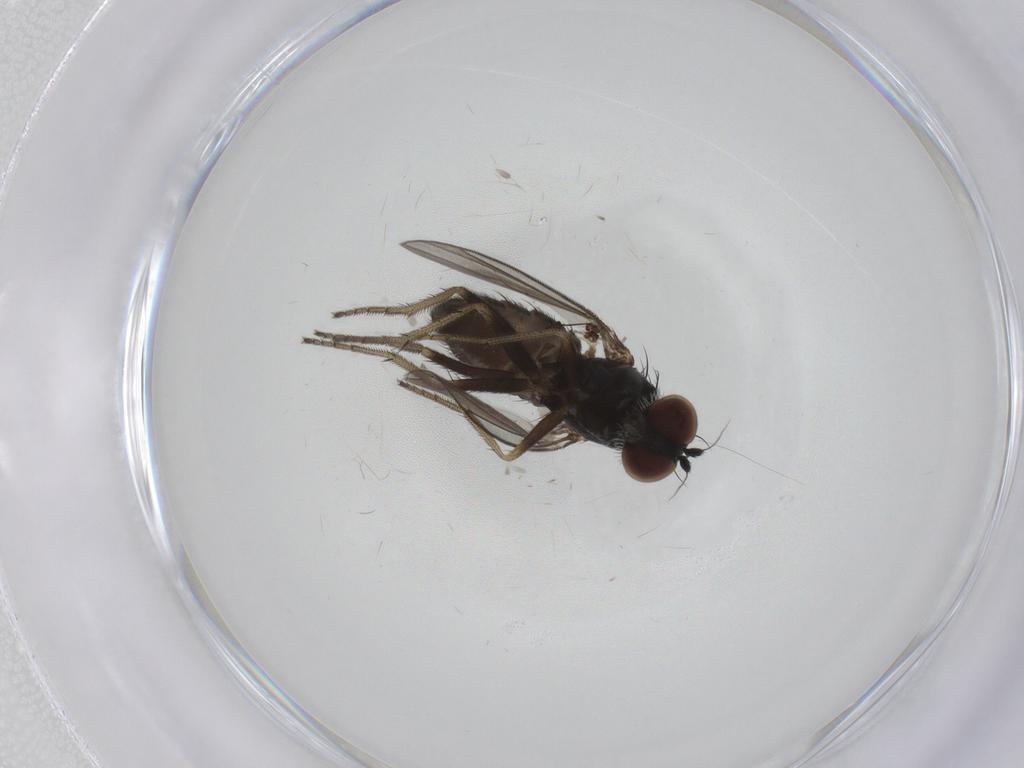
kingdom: Animalia
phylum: Arthropoda
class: Insecta
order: Diptera
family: Dolichopodidae
